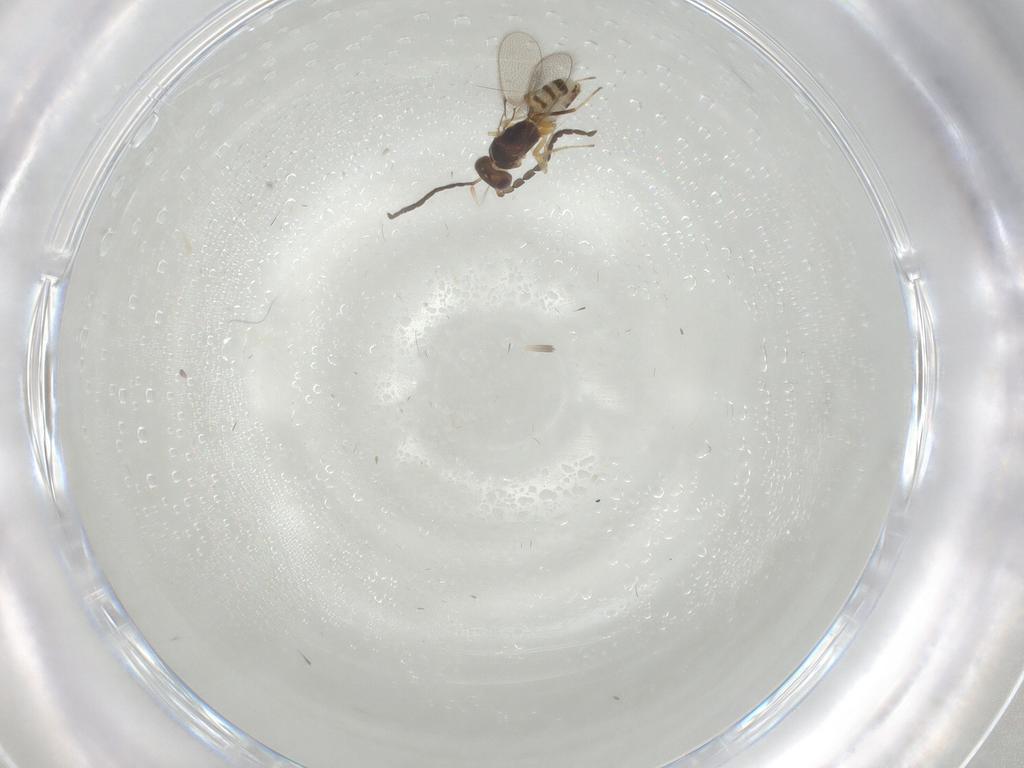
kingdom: Animalia
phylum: Arthropoda
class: Insecta
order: Hymenoptera
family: Mymaridae
